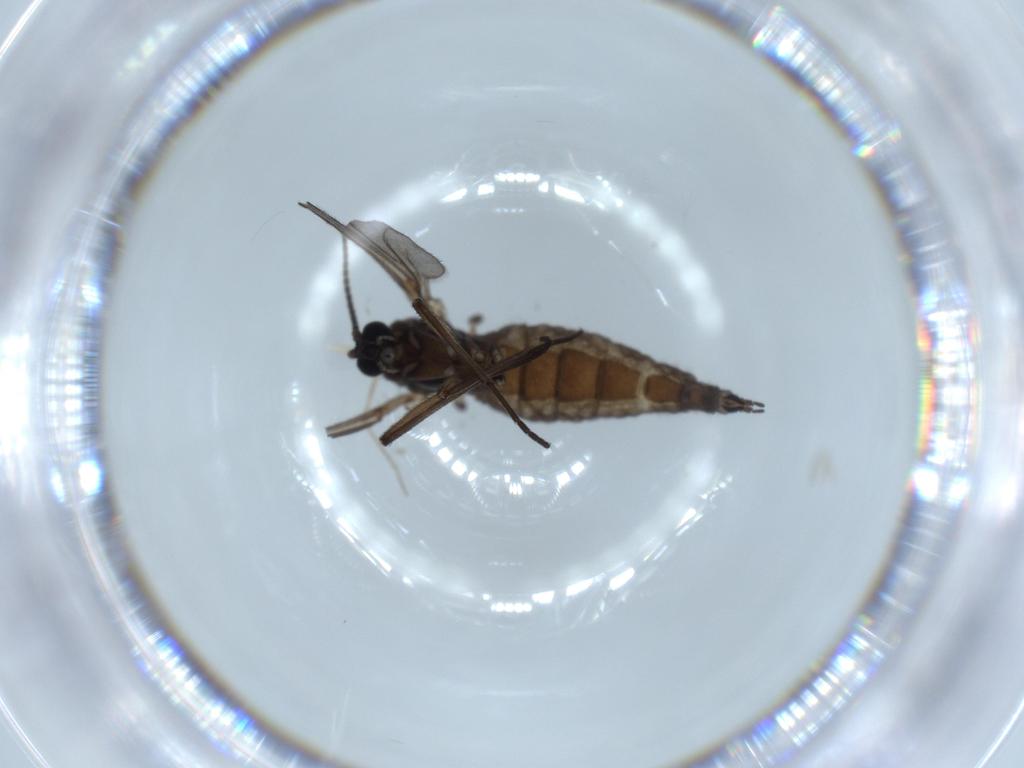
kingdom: Animalia
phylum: Arthropoda
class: Insecta
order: Diptera
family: Sciaridae
